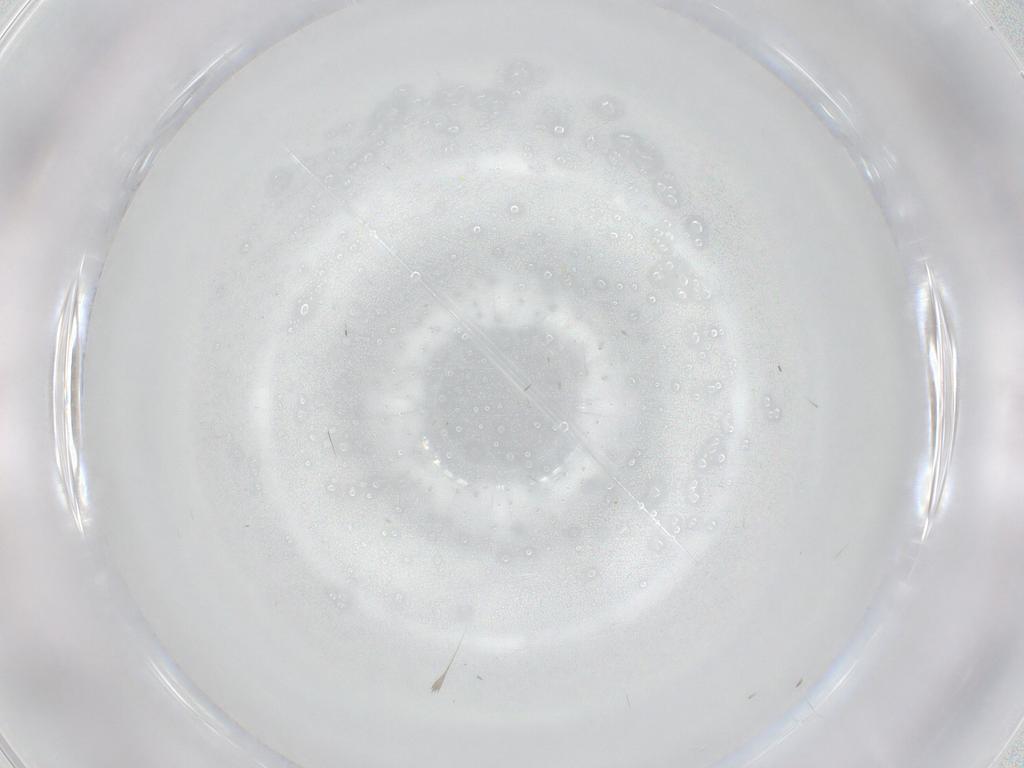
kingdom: Animalia
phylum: Arthropoda
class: Insecta
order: Psocodea
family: Lepidopsocidae
